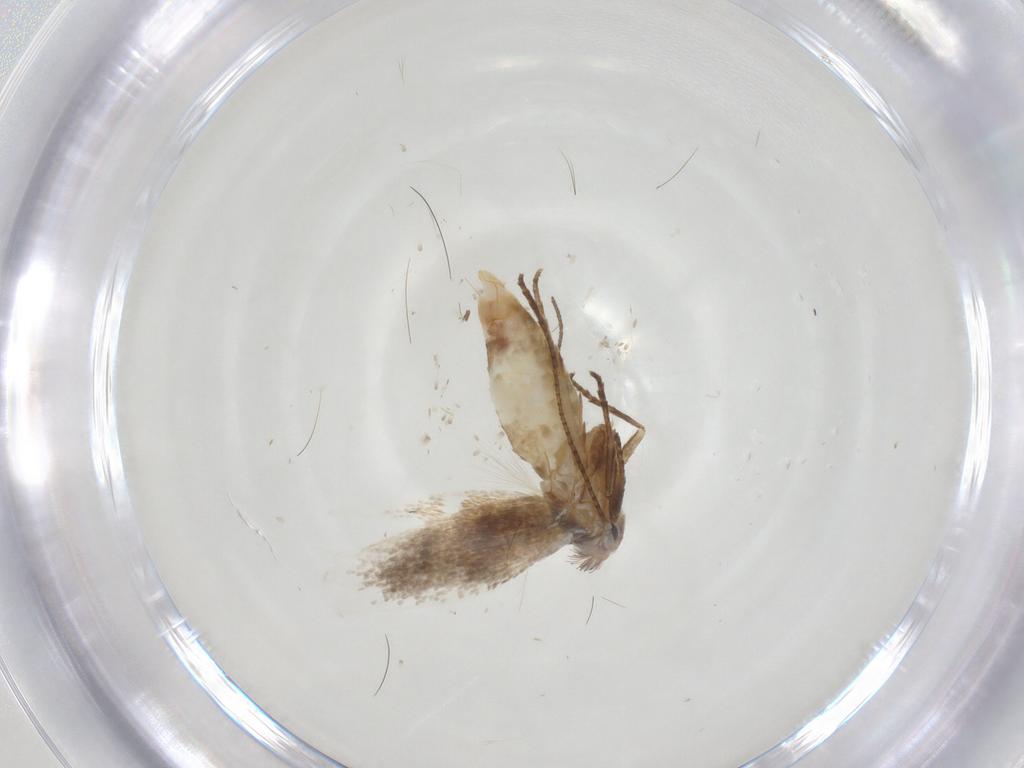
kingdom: Animalia
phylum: Arthropoda
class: Insecta
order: Lepidoptera
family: Bucculatricidae
